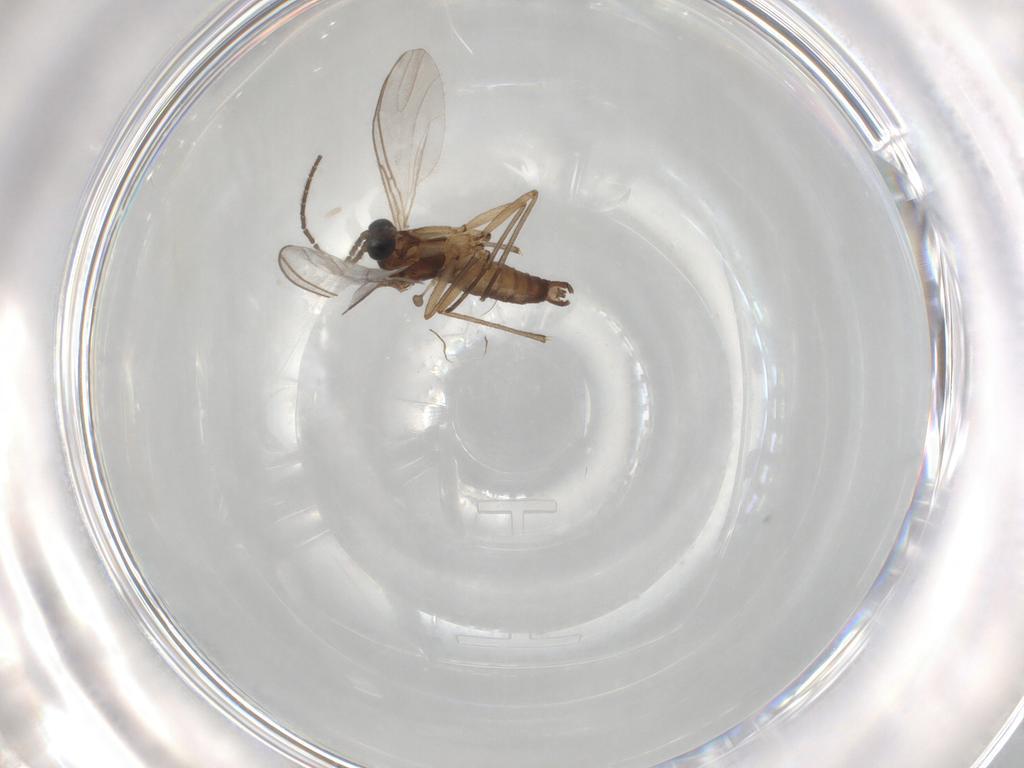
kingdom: Animalia
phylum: Arthropoda
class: Insecta
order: Diptera
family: Sciaridae
